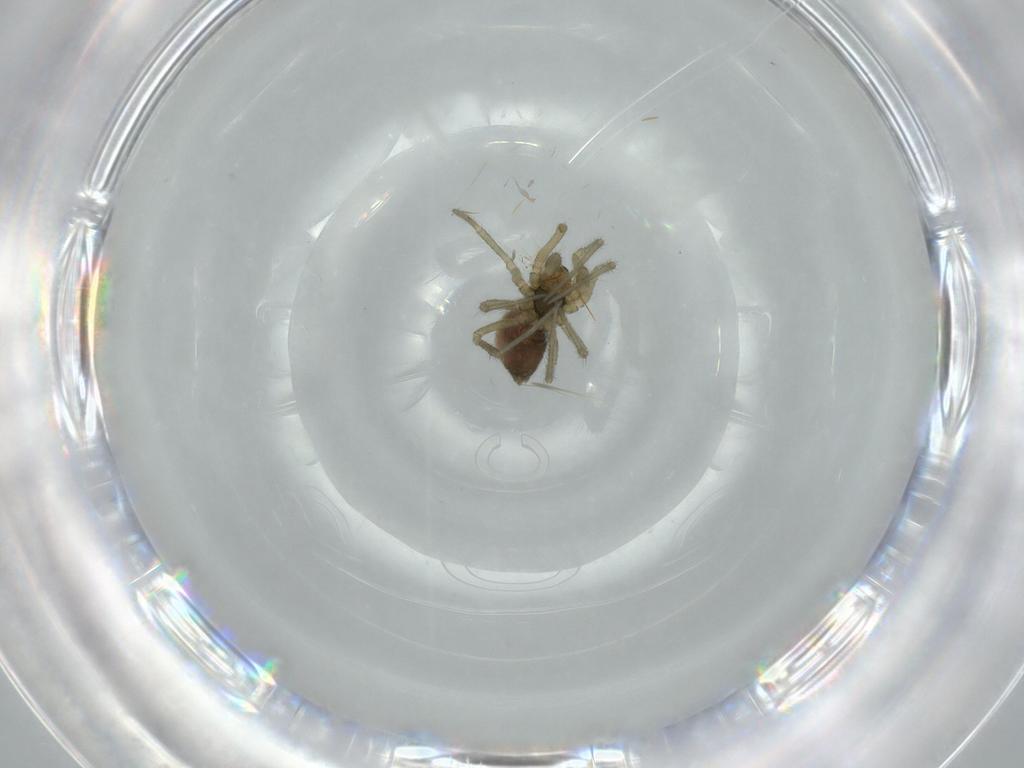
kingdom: Animalia
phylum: Arthropoda
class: Arachnida
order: Araneae
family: Linyphiidae
